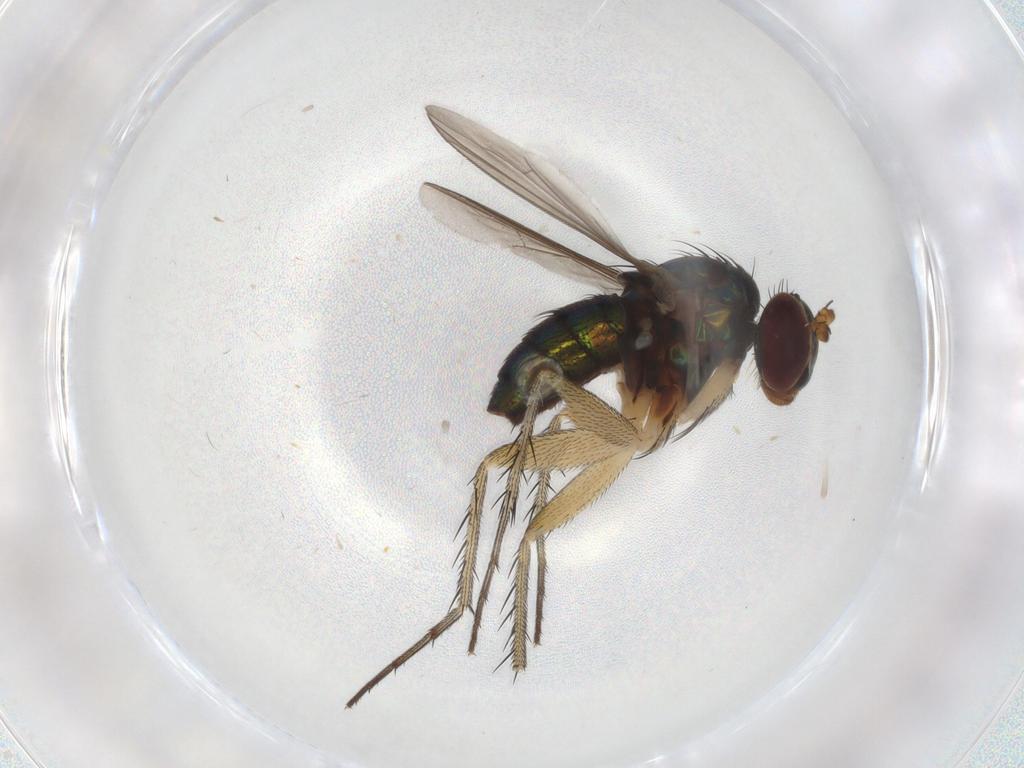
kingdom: Animalia
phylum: Arthropoda
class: Insecta
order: Diptera
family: Dolichopodidae
